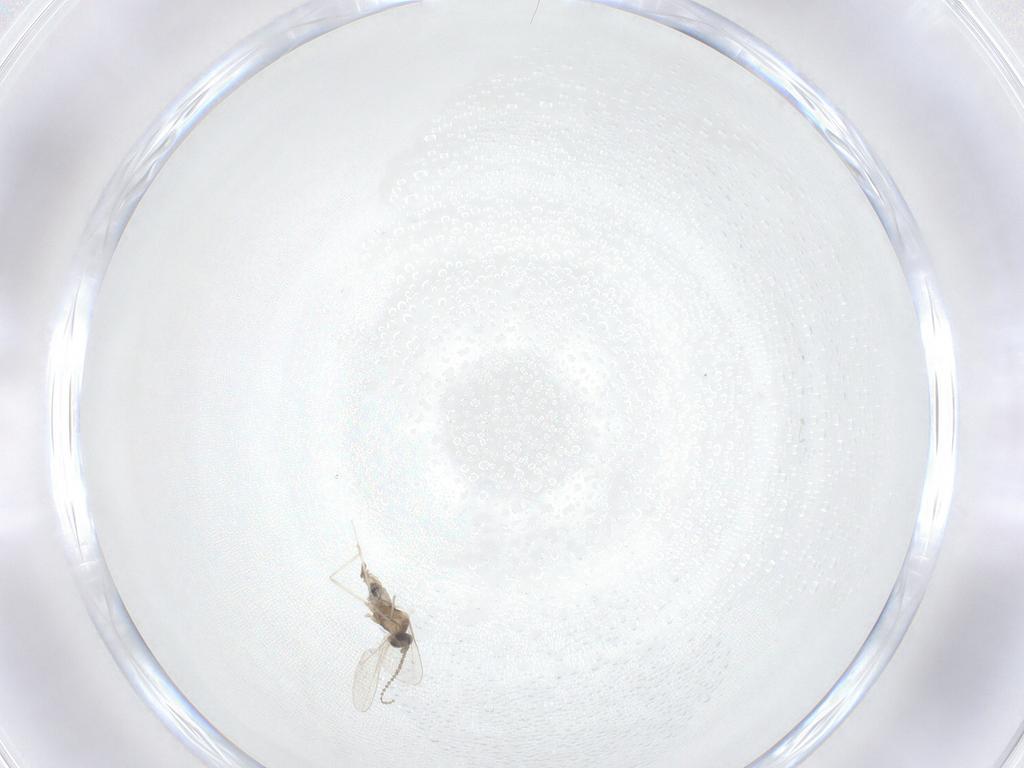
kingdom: Animalia
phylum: Arthropoda
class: Insecta
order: Diptera
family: Cecidomyiidae
